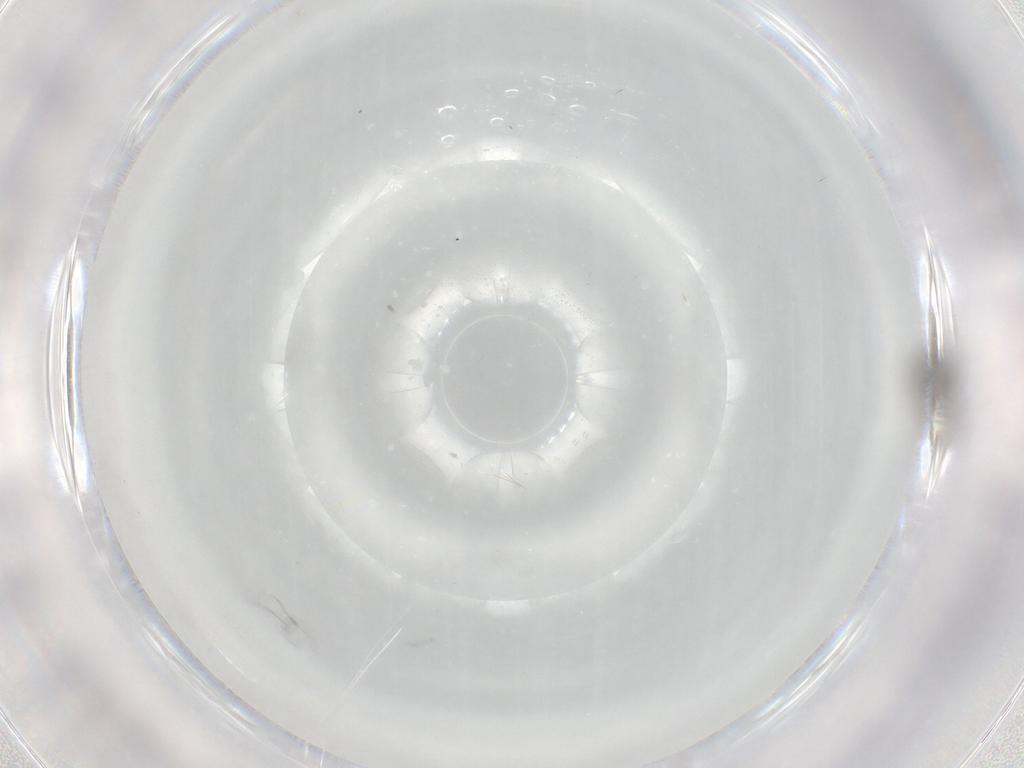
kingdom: Animalia
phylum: Arthropoda
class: Insecta
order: Diptera
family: Ceratopogonidae
